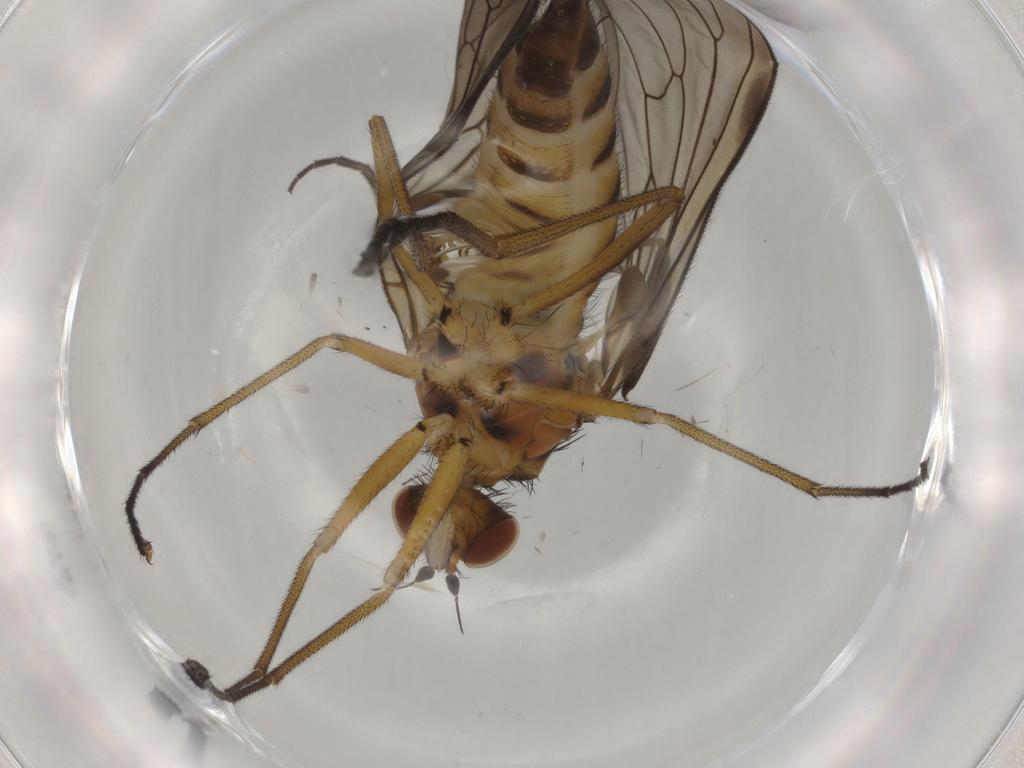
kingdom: Animalia
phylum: Arthropoda
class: Insecta
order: Diptera
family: Brachystomatidae
